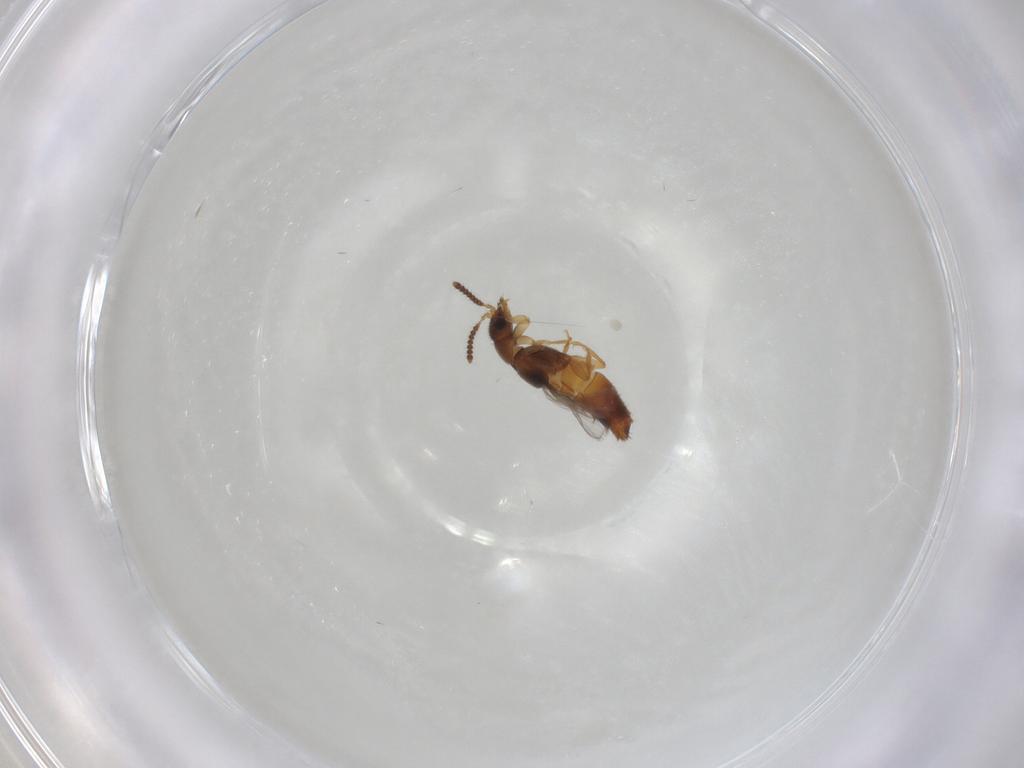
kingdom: Animalia
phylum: Arthropoda
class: Insecta
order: Coleoptera
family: Staphylinidae
